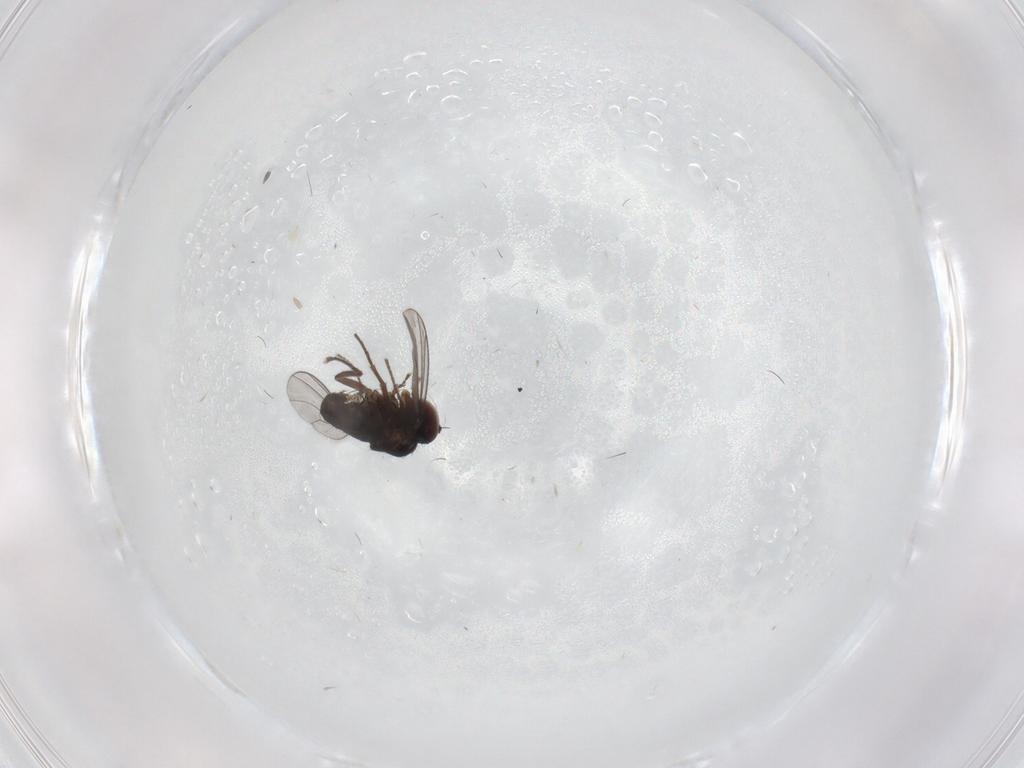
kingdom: Animalia
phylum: Arthropoda
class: Insecta
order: Diptera
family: Dolichopodidae
